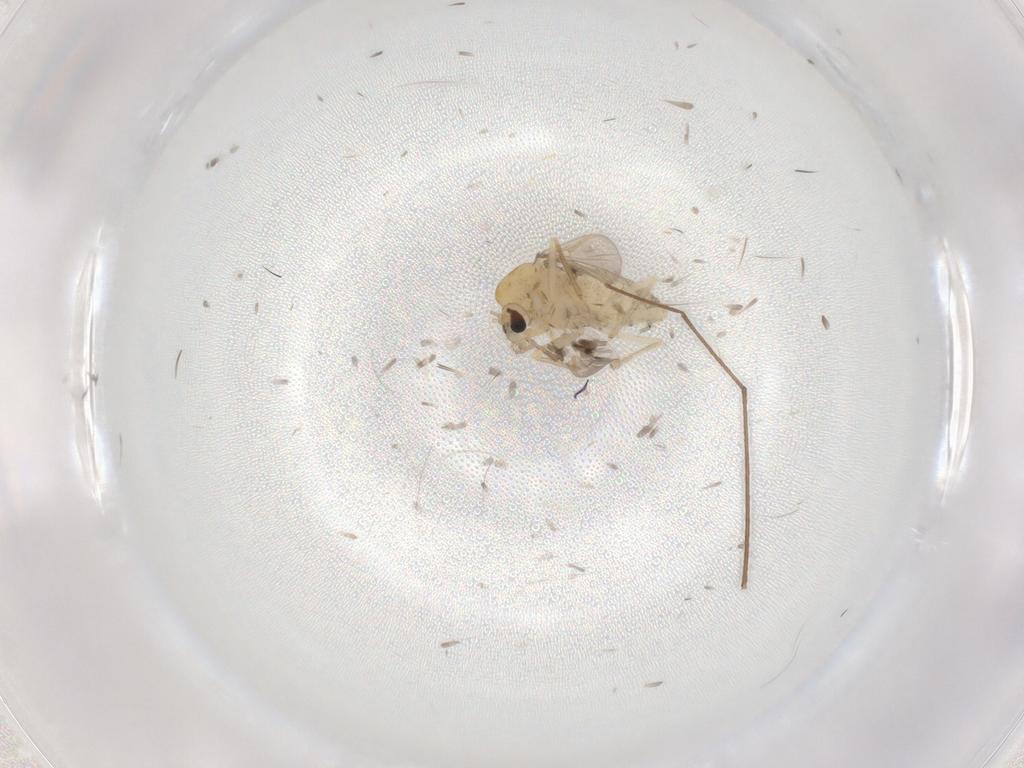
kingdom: Animalia
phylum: Arthropoda
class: Insecta
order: Diptera
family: Chironomidae
